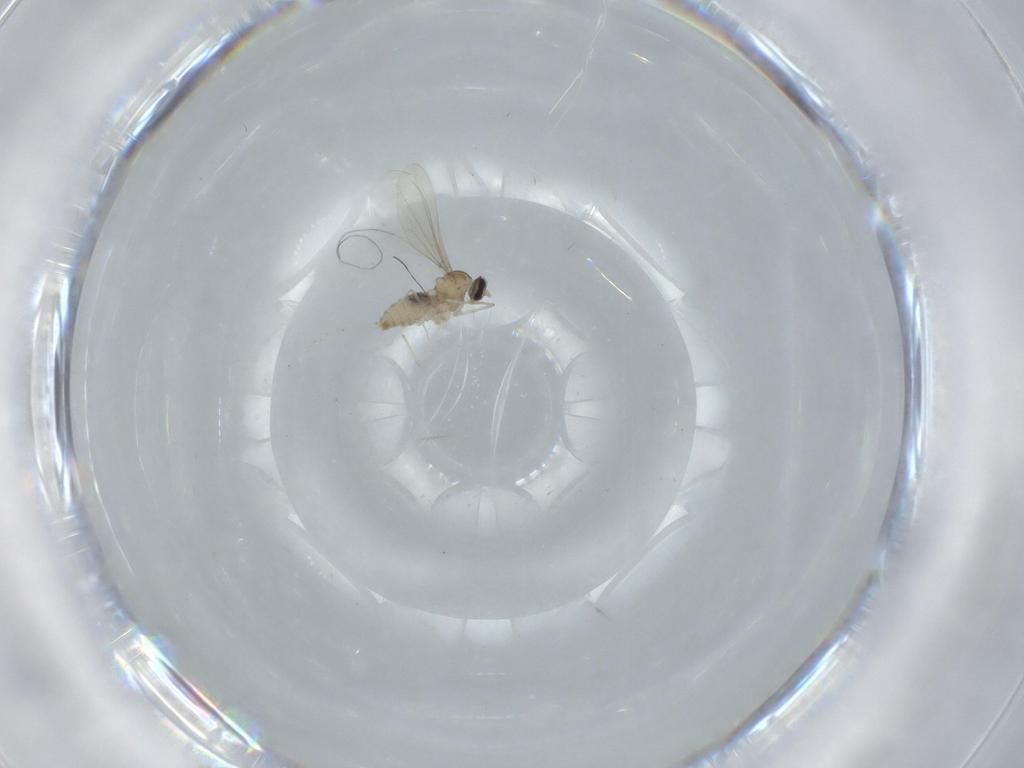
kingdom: Animalia
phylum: Arthropoda
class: Insecta
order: Diptera
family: Cecidomyiidae
